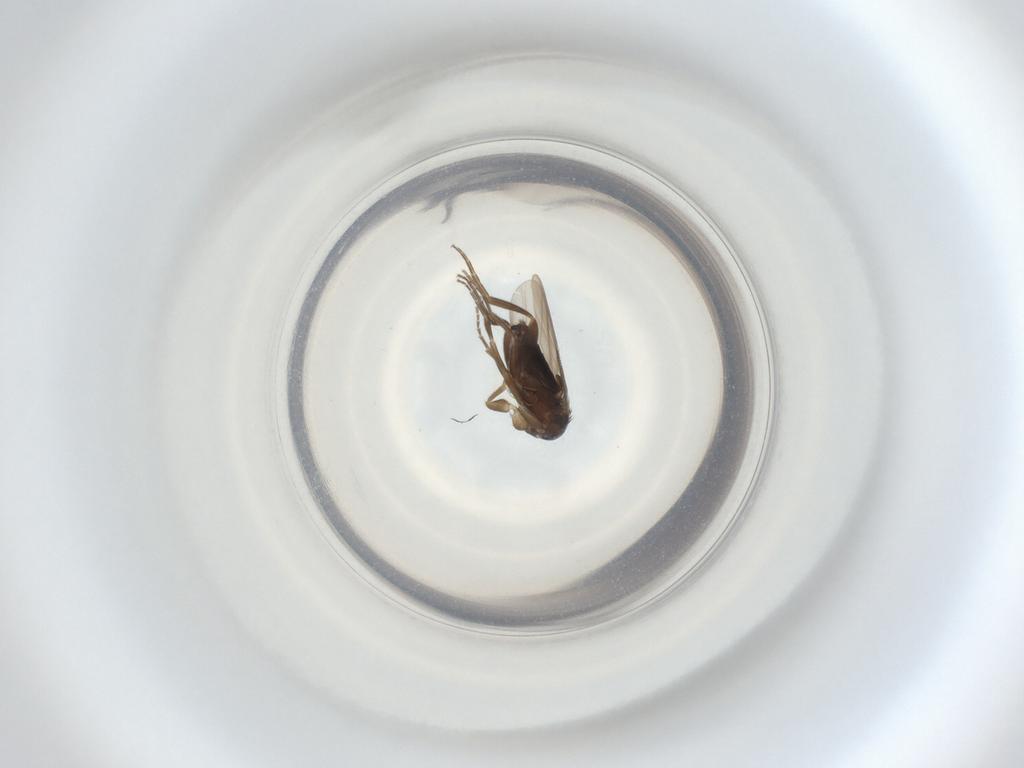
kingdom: Animalia
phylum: Arthropoda
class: Insecta
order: Diptera
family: Phoridae
